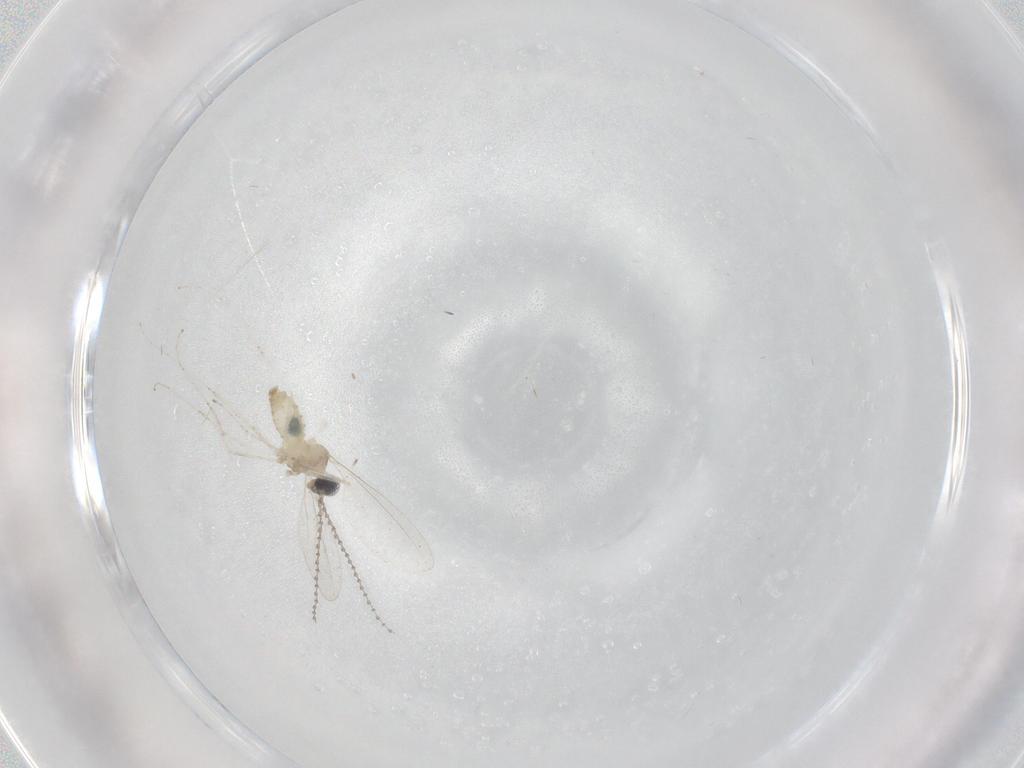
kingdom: Animalia
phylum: Arthropoda
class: Insecta
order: Diptera
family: Cecidomyiidae
